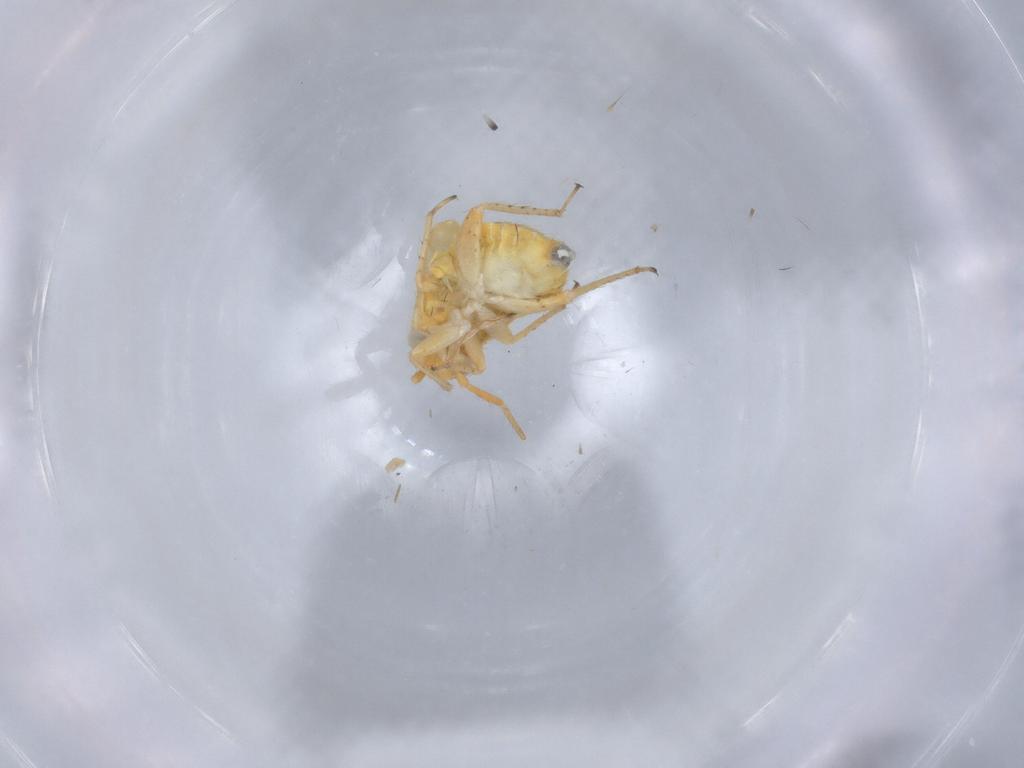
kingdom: Animalia
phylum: Arthropoda
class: Insecta
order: Hemiptera
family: Miridae
